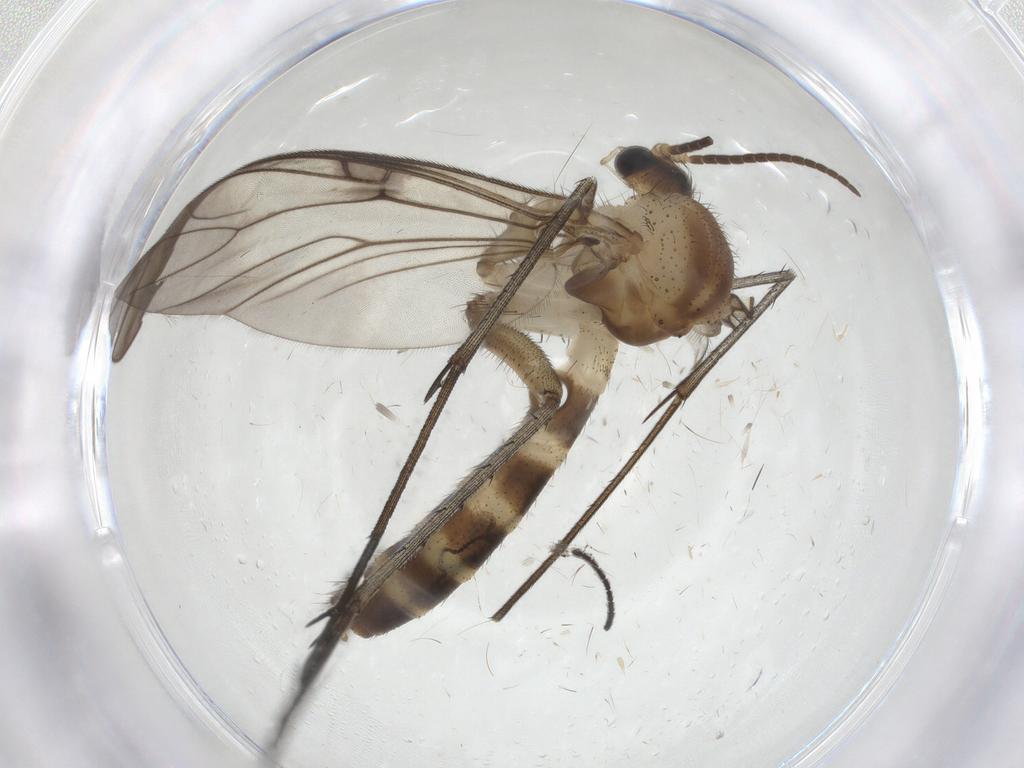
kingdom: Animalia
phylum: Arthropoda
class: Insecta
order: Diptera
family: Mycetophilidae
